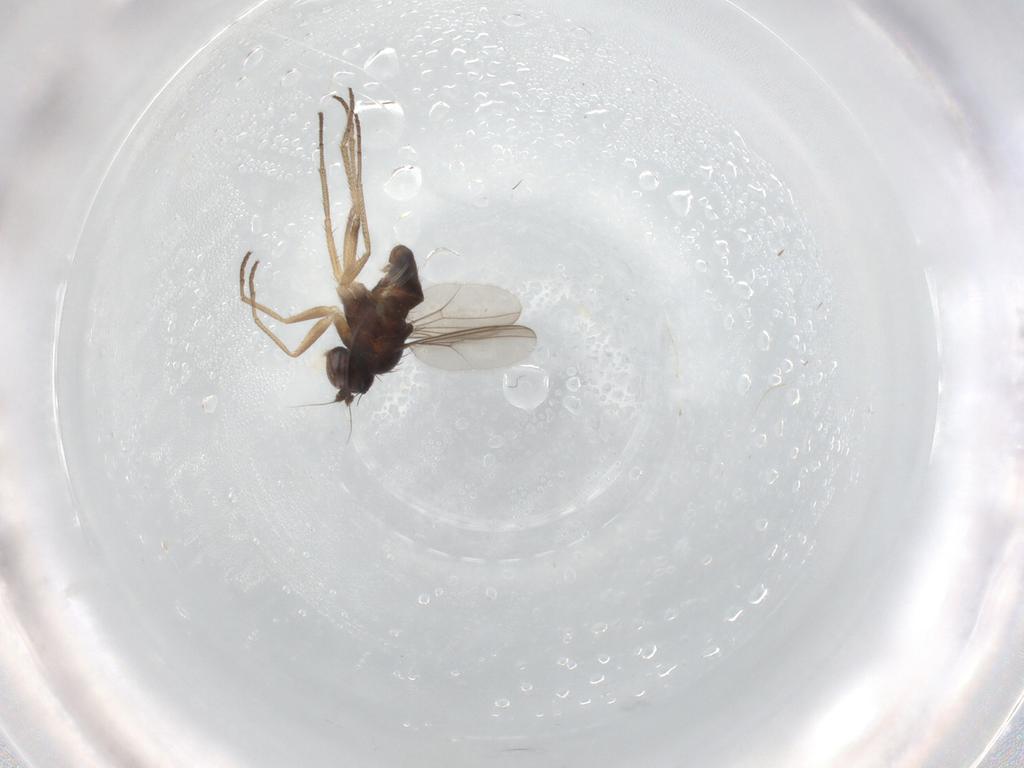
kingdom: Animalia
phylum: Arthropoda
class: Insecta
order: Diptera
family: Dolichopodidae
